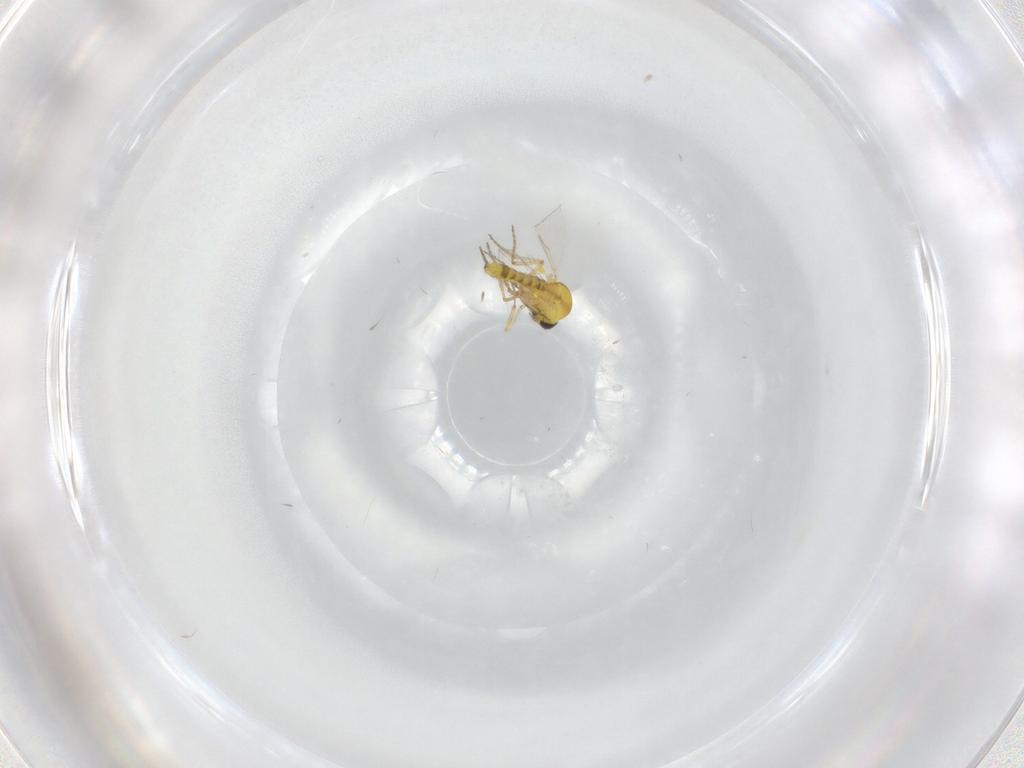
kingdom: Animalia
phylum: Arthropoda
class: Insecta
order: Diptera
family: Ceratopogonidae
